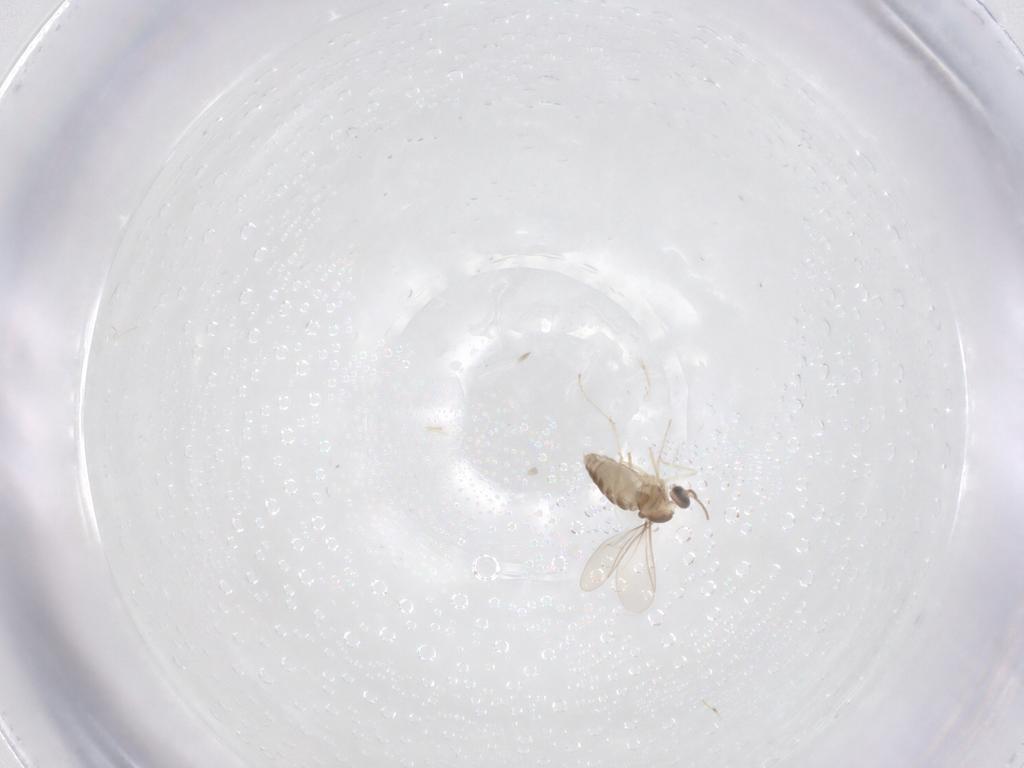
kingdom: Animalia
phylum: Arthropoda
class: Insecta
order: Diptera
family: Cecidomyiidae
